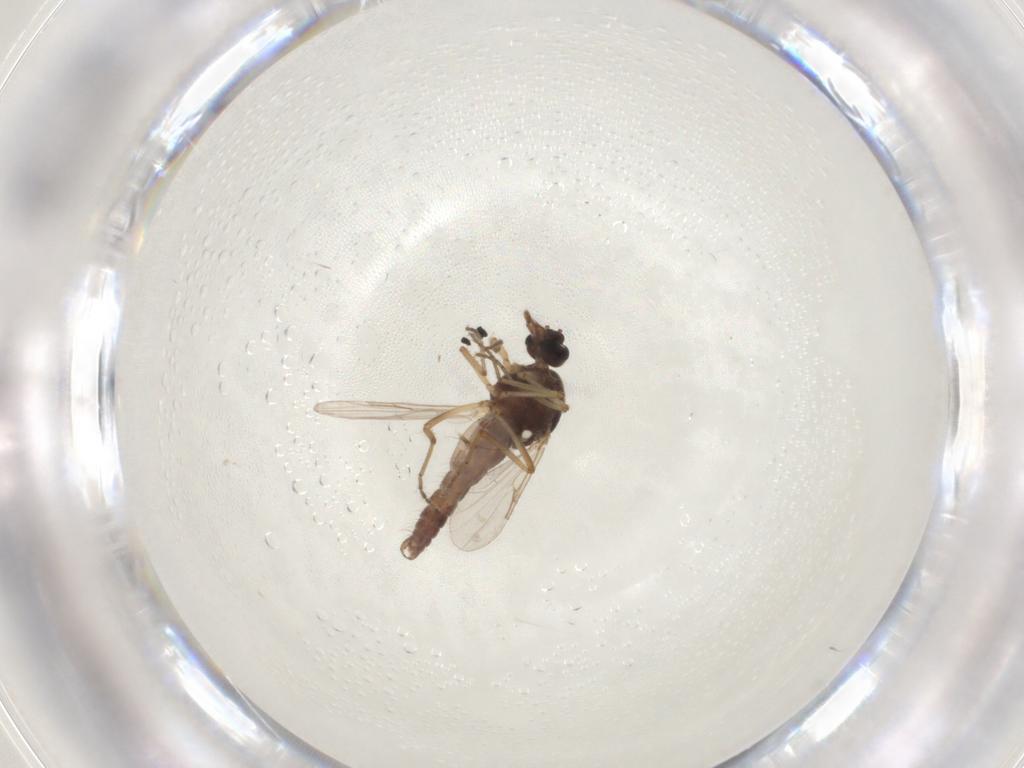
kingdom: Animalia
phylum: Arthropoda
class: Insecta
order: Diptera
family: Ceratopogonidae
